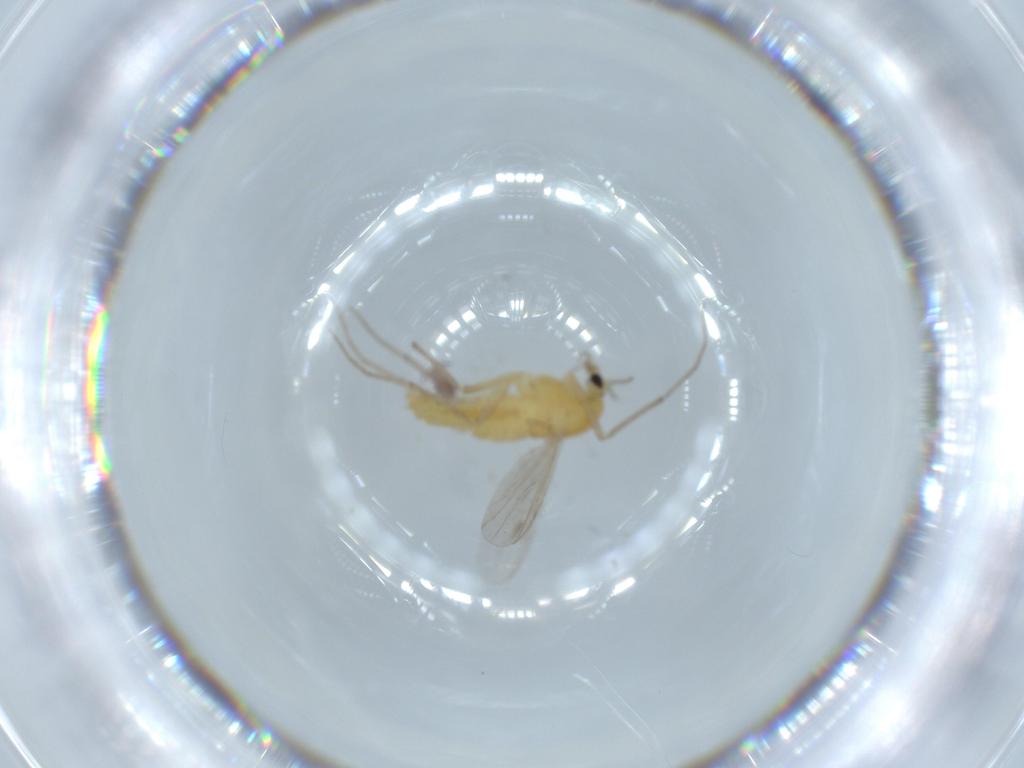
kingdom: Animalia
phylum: Arthropoda
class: Insecta
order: Diptera
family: Chironomidae
